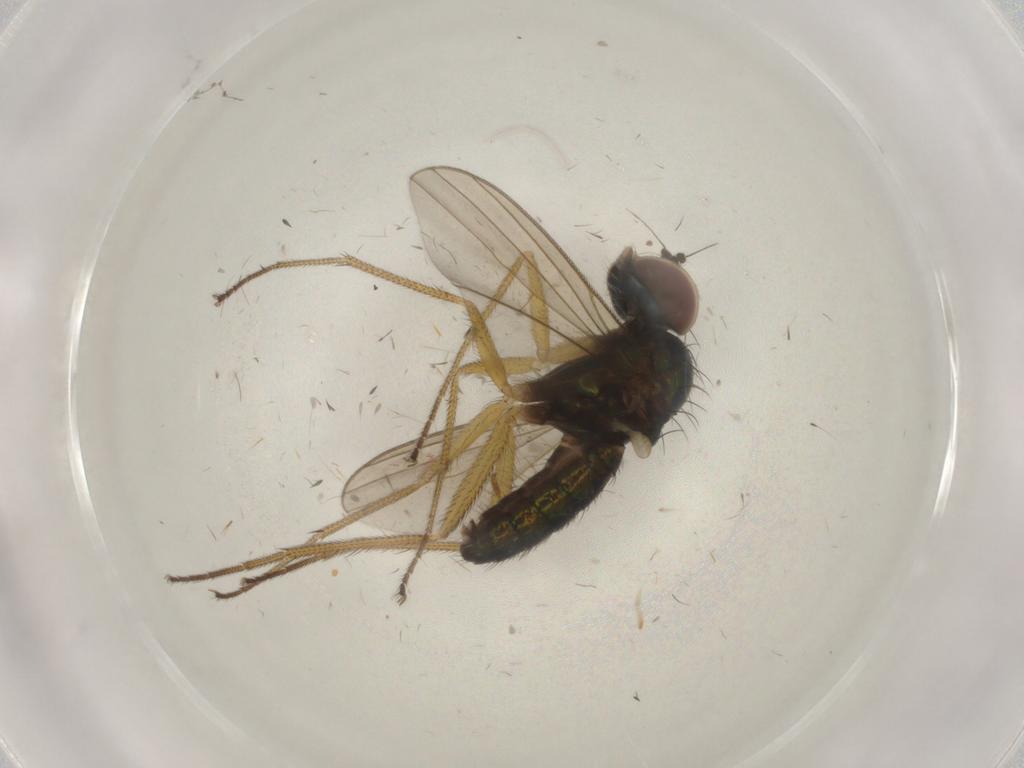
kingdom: Animalia
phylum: Arthropoda
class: Insecta
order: Diptera
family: Dolichopodidae
